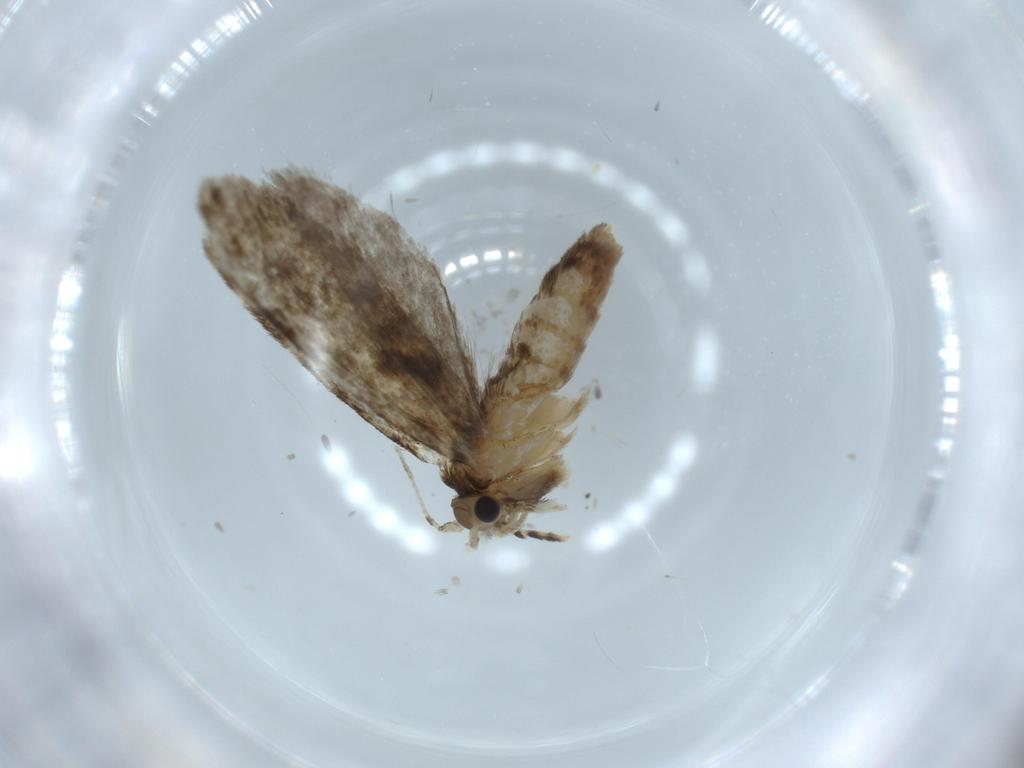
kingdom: Animalia
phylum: Arthropoda
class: Insecta
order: Lepidoptera
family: Tineidae
